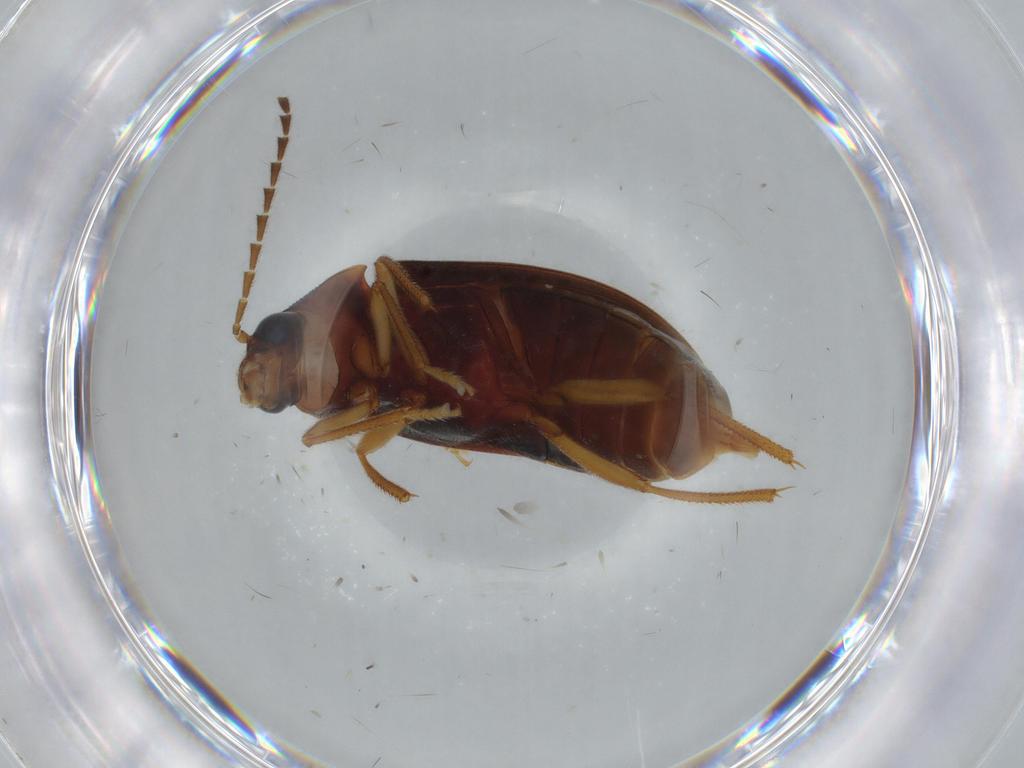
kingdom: Animalia
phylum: Arthropoda
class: Insecta
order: Coleoptera
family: Ptilodactylidae
